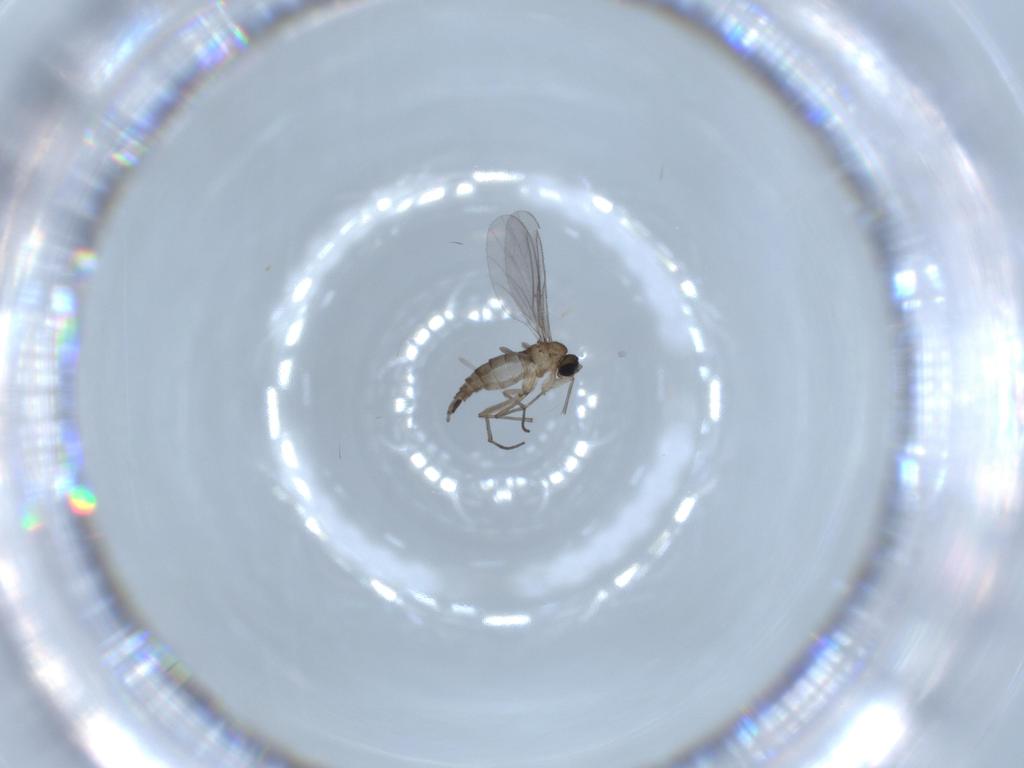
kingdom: Animalia
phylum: Arthropoda
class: Insecta
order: Diptera
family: Sciaridae
